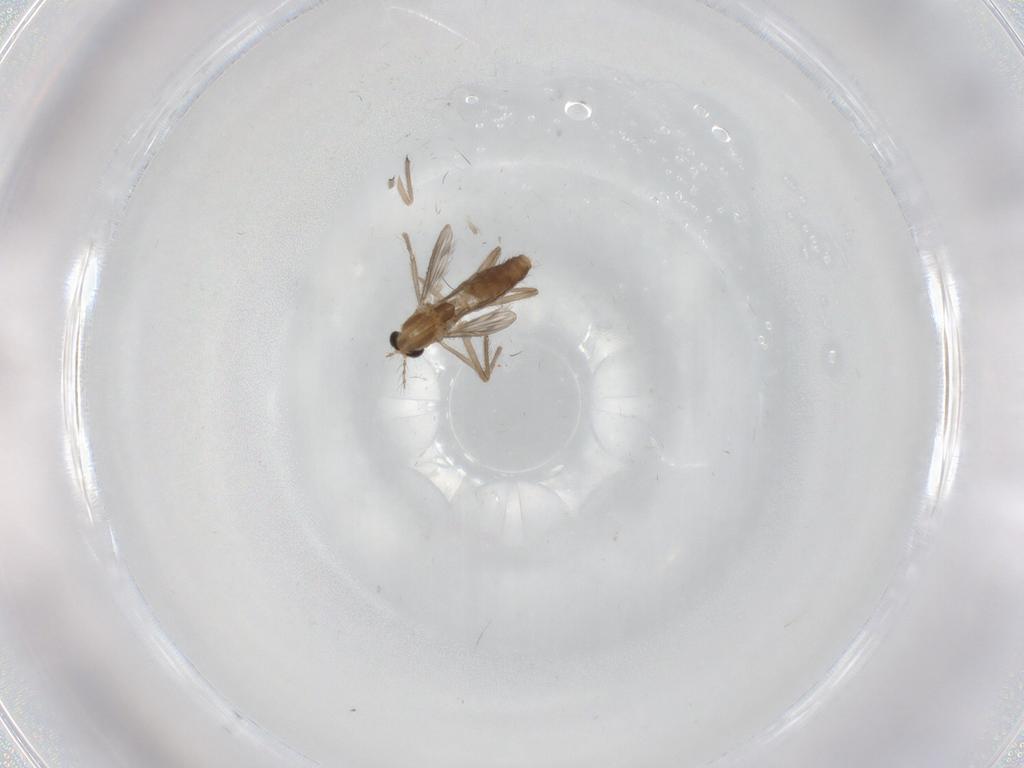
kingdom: Animalia
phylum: Arthropoda
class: Insecta
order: Diptera
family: Chironomidae
